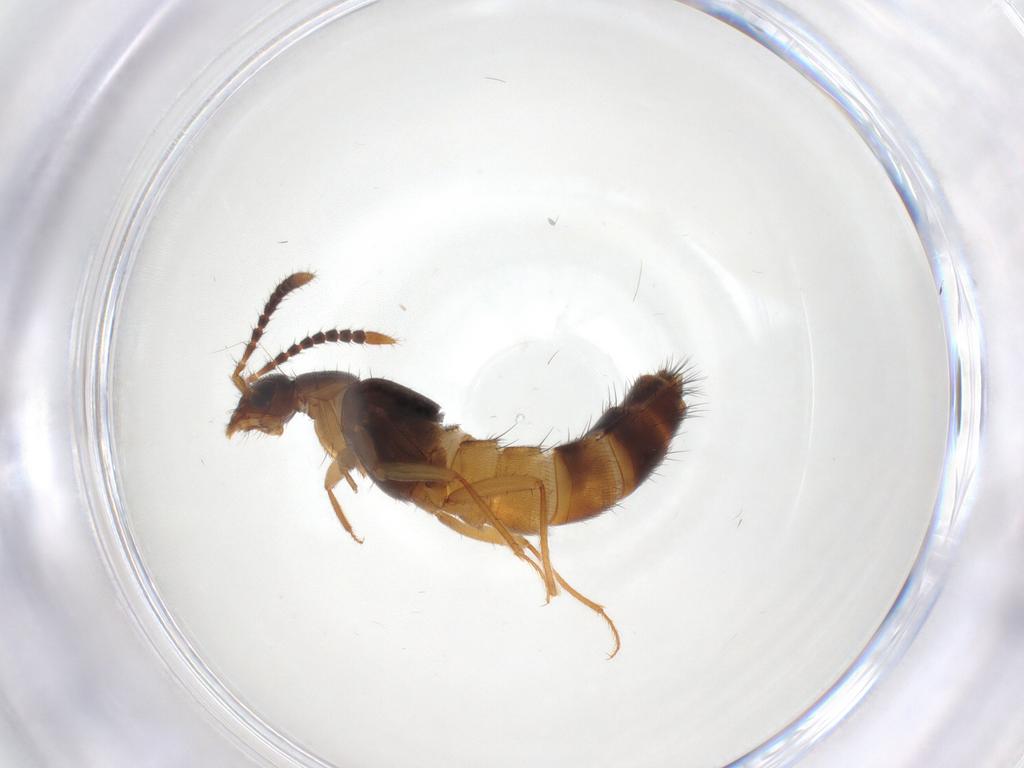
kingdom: Animalia
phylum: Arthropoda
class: Insecta
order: Coleoptera
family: Staphylinidae
